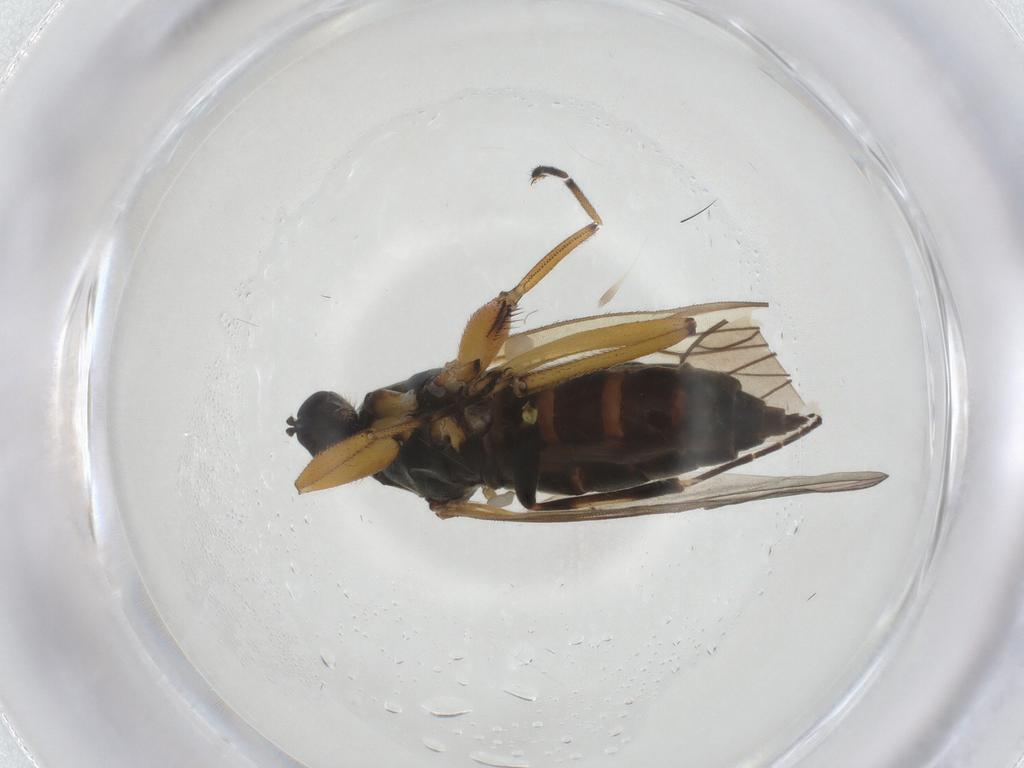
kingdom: Animalia
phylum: Arthropoda
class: Insecta
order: Diptera
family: Hybotidae
